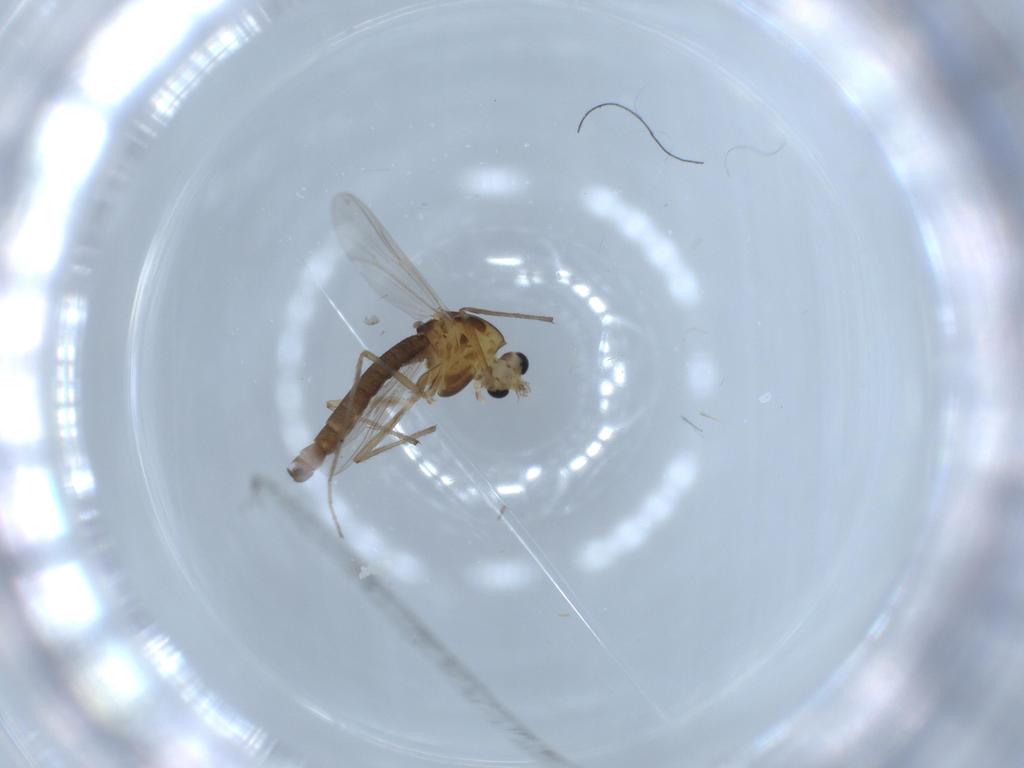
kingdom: Animalia
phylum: Arthropoda
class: Insecta
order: Diptera
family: Chironomidae
